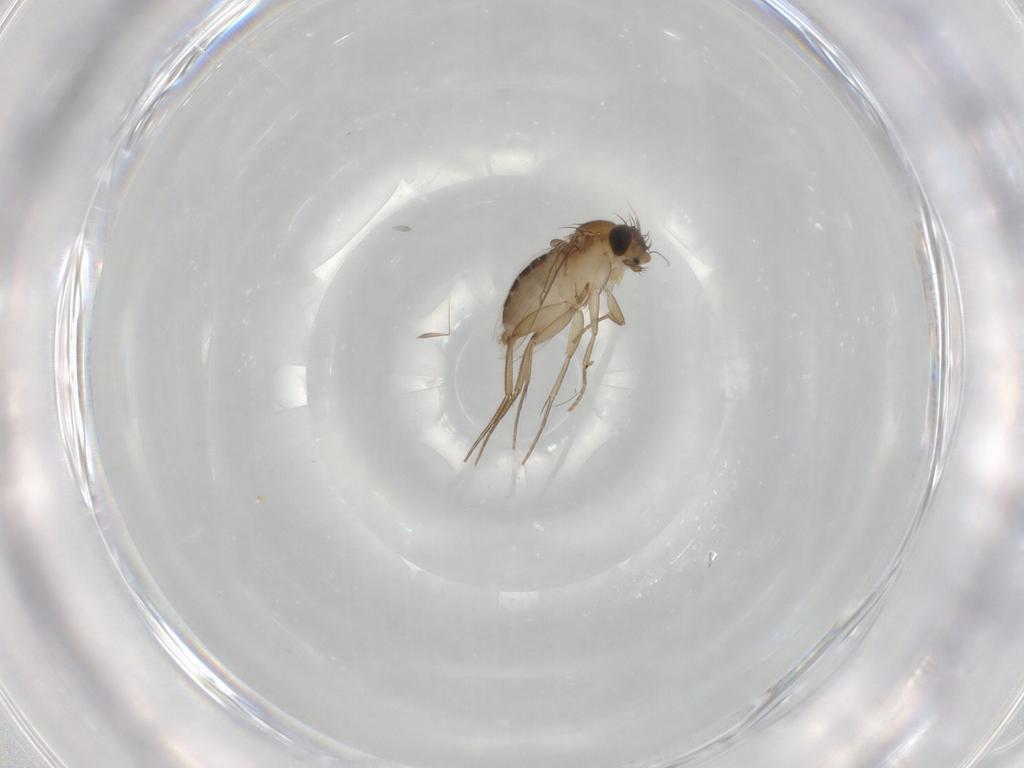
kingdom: Animalia
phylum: Arthropoda
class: Insecta
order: Diptera
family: Phoridae
